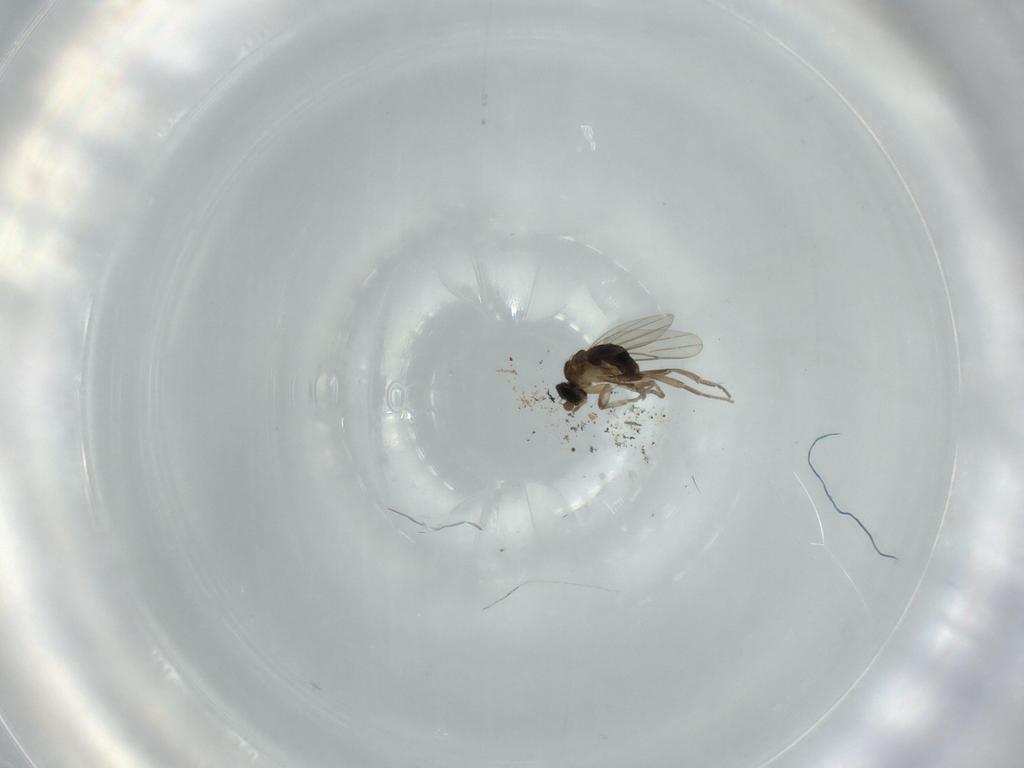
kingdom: Animalia
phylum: Arthropoda
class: Insecta
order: Diptera
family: Phoridae
